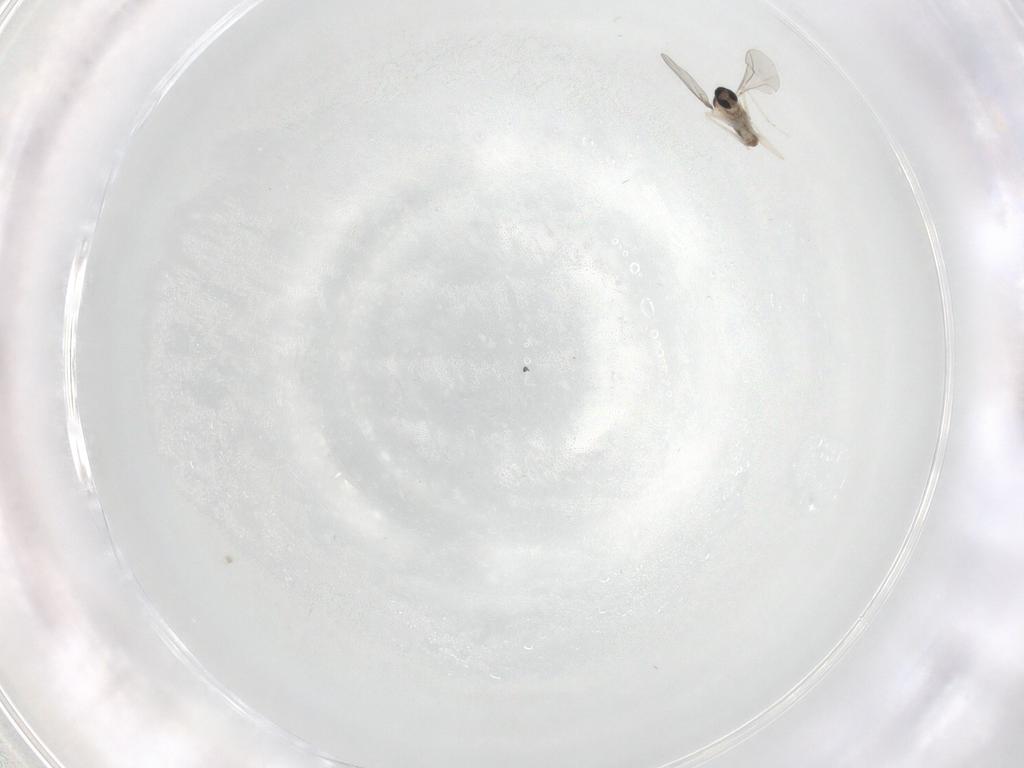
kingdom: Animalia
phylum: Arthropoda
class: Insecta
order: Diptera
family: Cecidomyiidae
